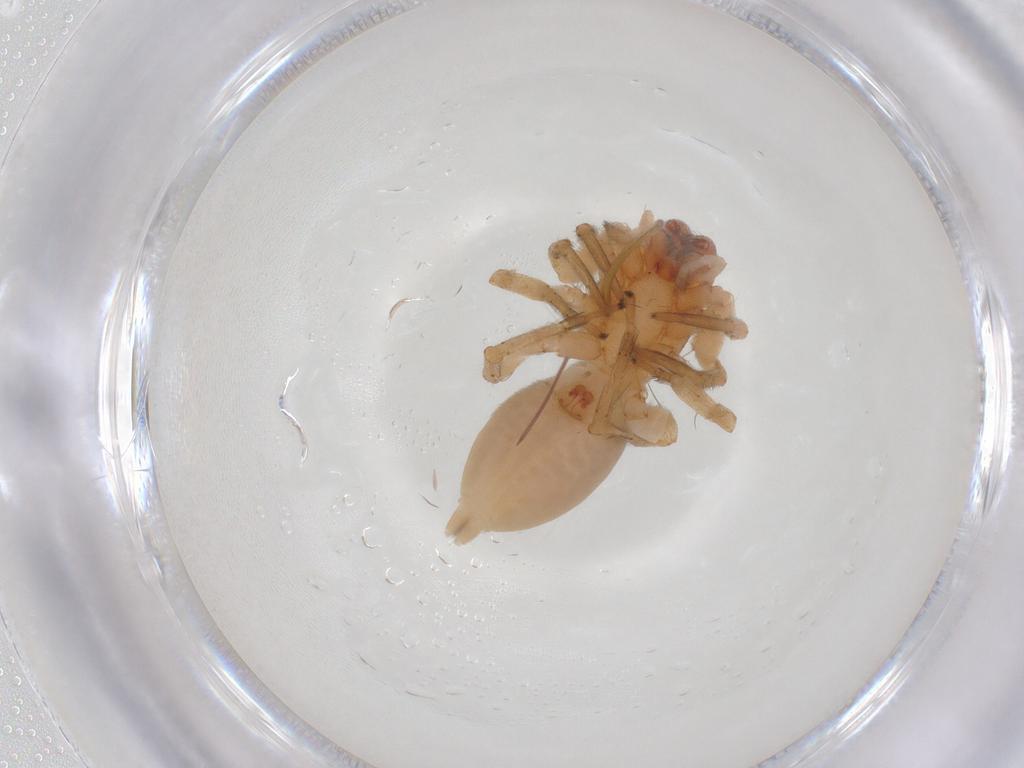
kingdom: Animalia
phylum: Arthropoda
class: Arachnida
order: Araneae
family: Clubionidae
